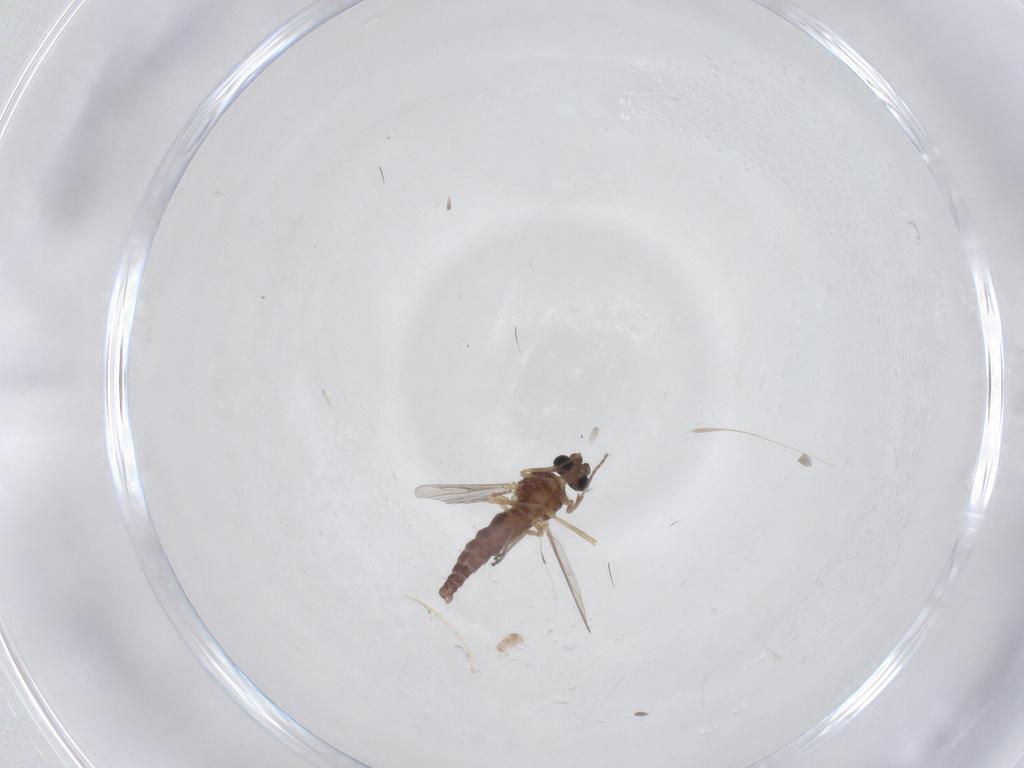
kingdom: Animalia
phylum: Arthropoda
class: Insecta
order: Diptera
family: Ceratopogonidae
